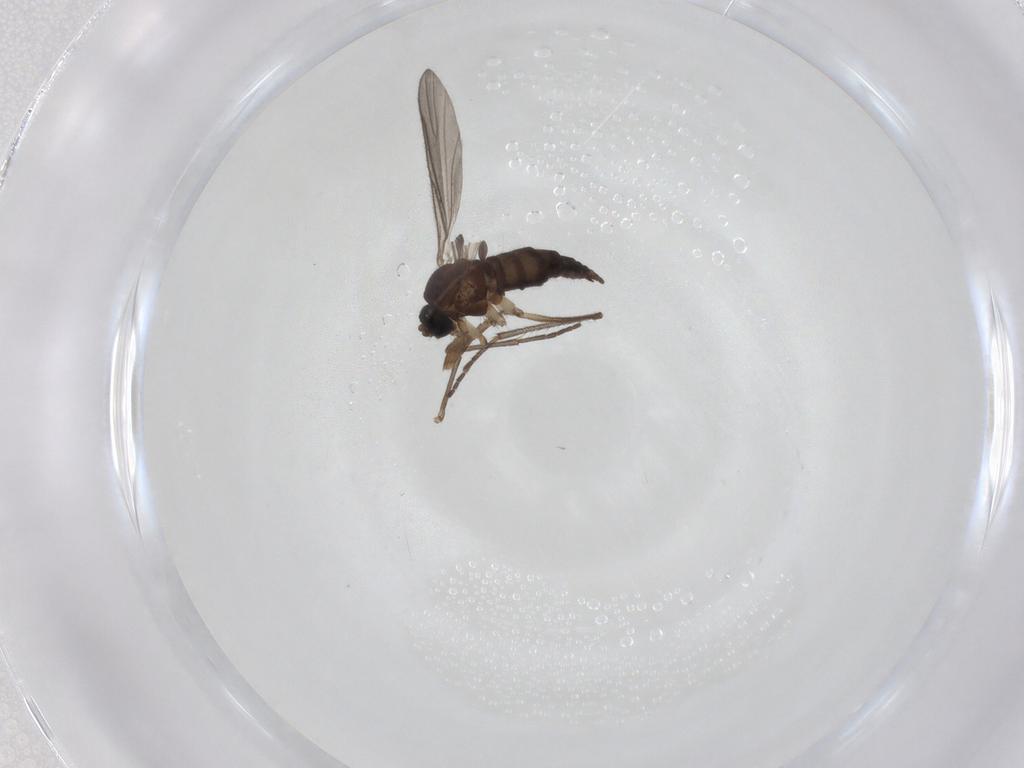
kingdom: Animalia
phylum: Arthropoda
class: Insecta
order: Diptera
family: Sciaridae
